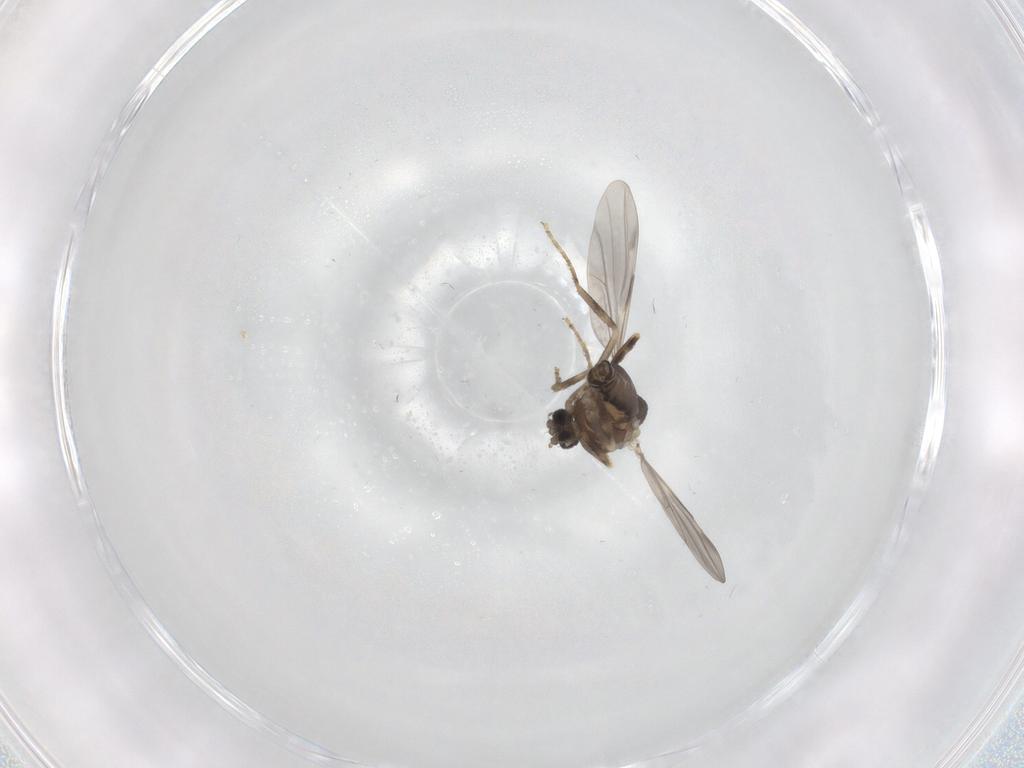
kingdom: Animalia
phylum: Arthropoda
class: Insecta
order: Diptera
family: Ceratopogonidae
